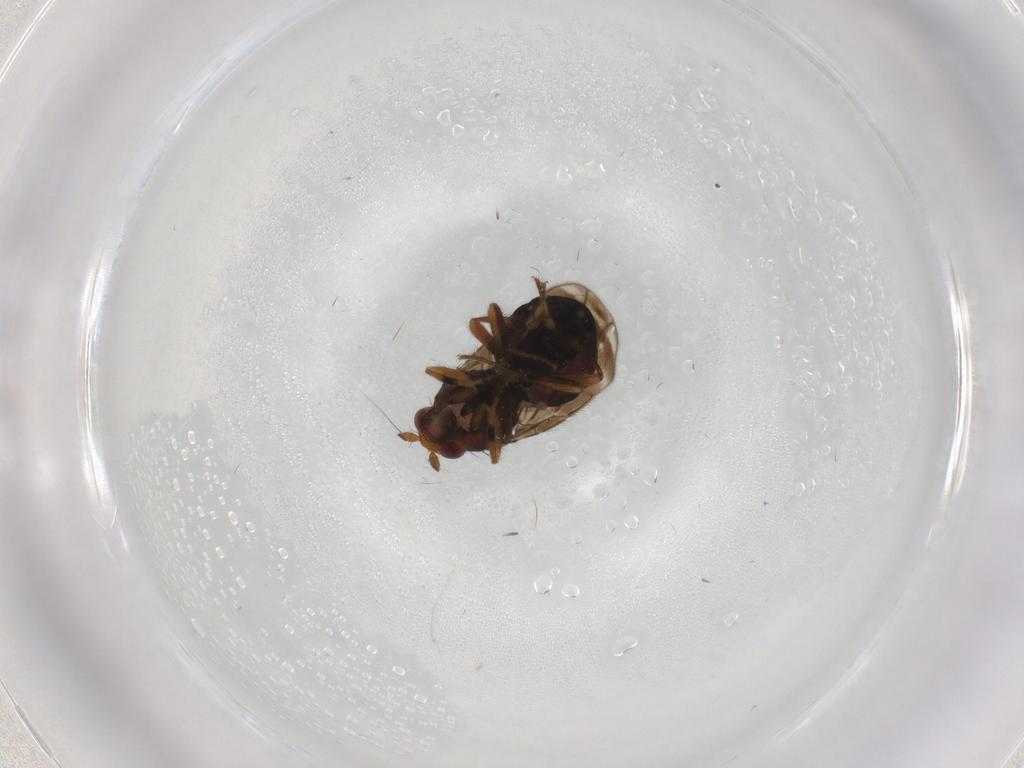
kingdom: Animalia
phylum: Arthropoda
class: Insecta
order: Diptera
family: Sphaeroceridae
